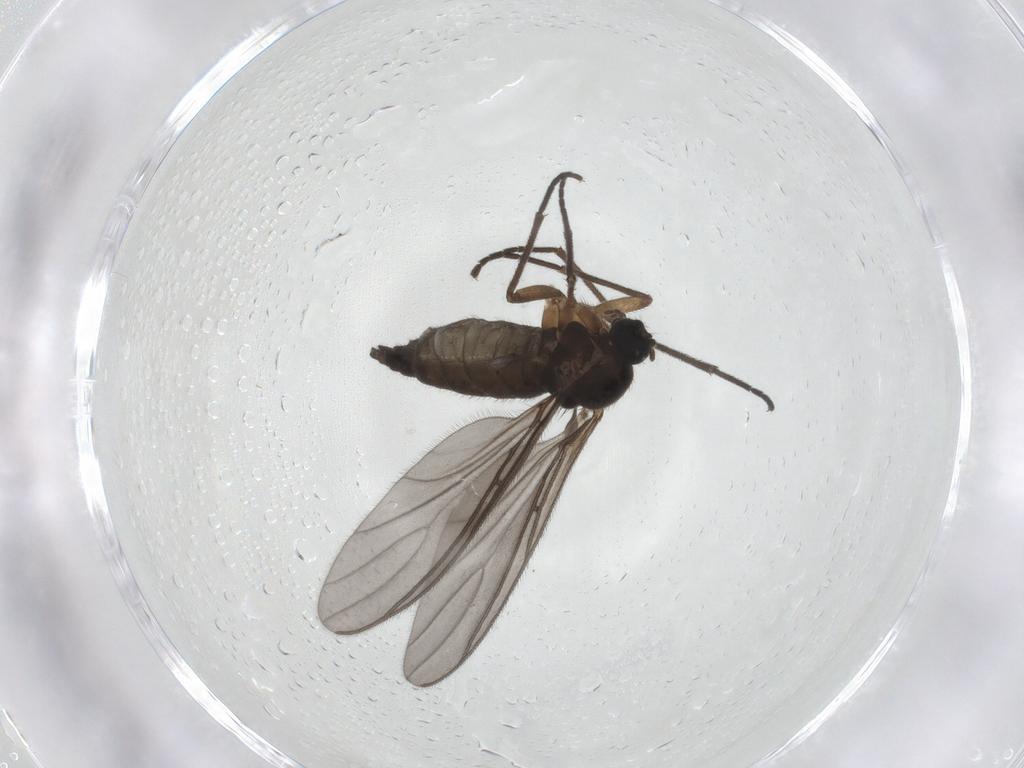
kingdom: Animalia
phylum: Arthropoda
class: Insecta
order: Diptera
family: Sciaridae
